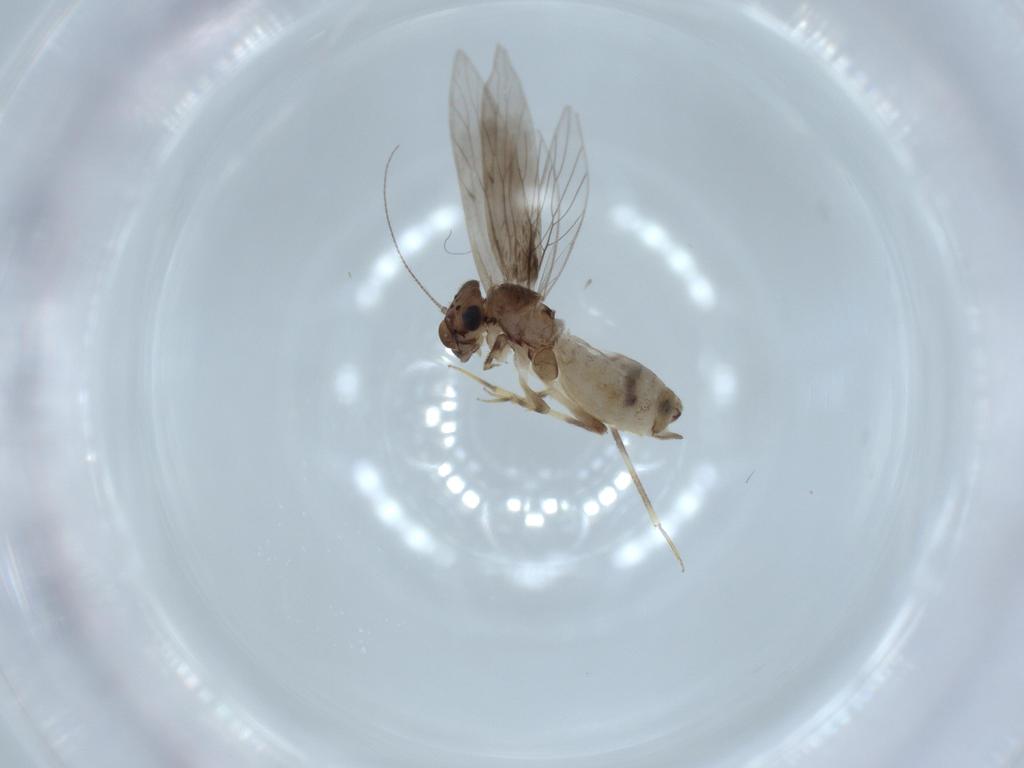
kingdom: Animalia
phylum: Arthropoda
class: Insecta
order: Psocodea
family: Lepidopsocidae
